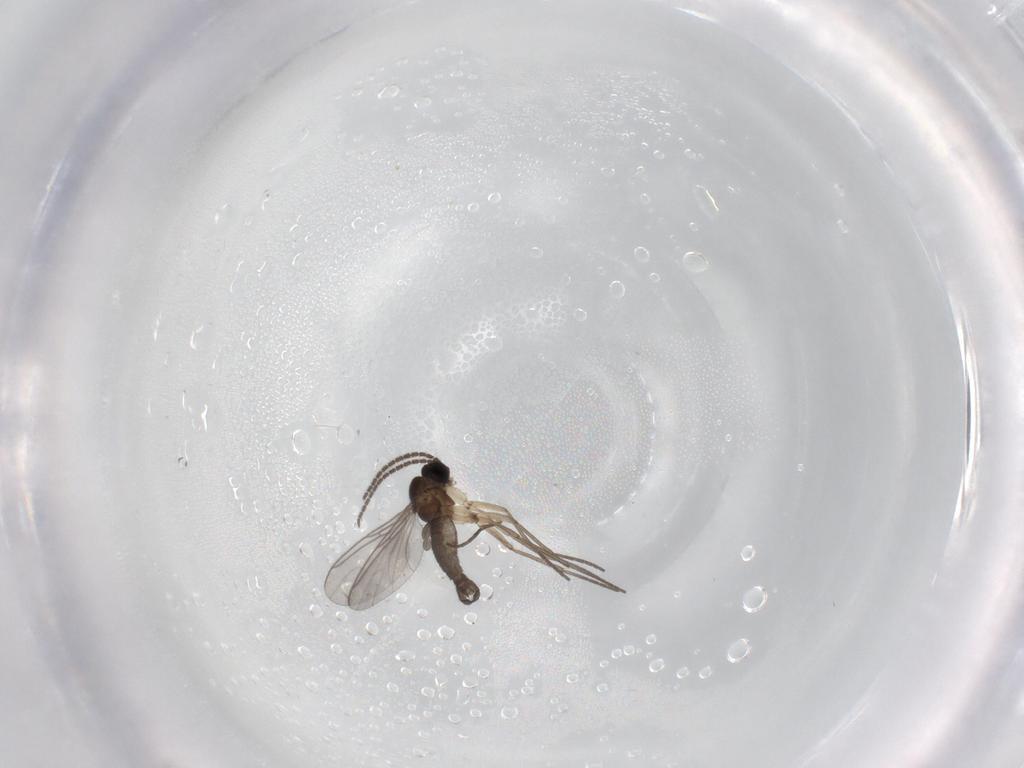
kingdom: Animalia
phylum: Arthropoda
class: Insecta
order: Diptera
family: Sciaridae
